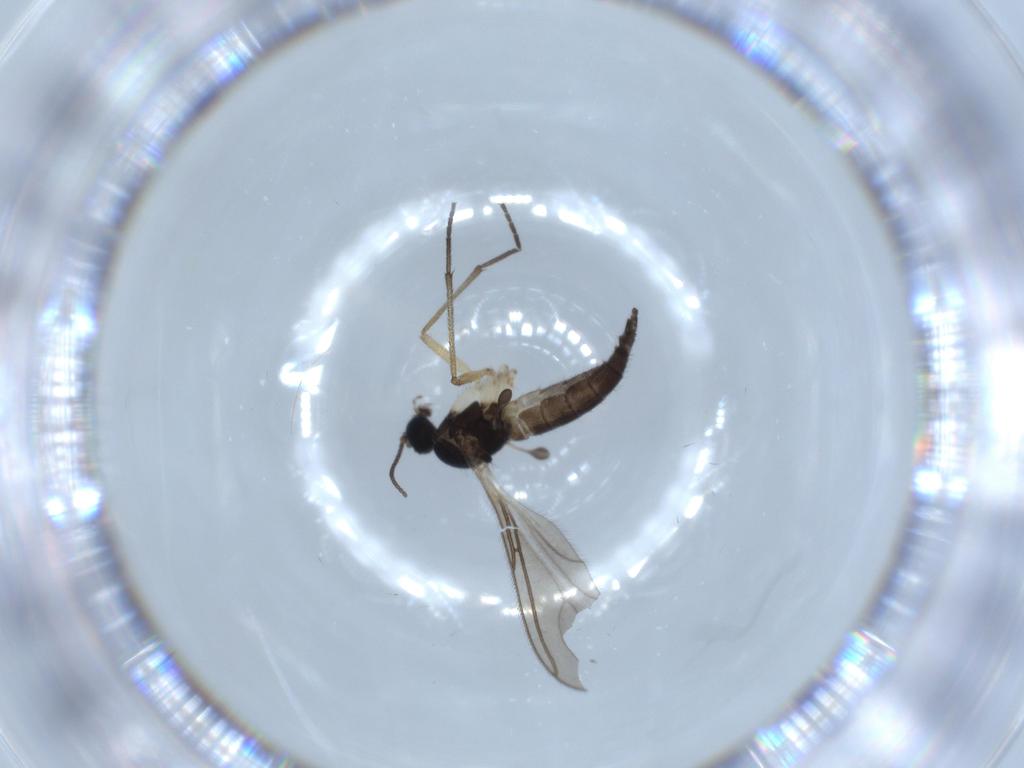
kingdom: Animalia
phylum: Arthropoda
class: Insecta
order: Diptera
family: Sciaridae
